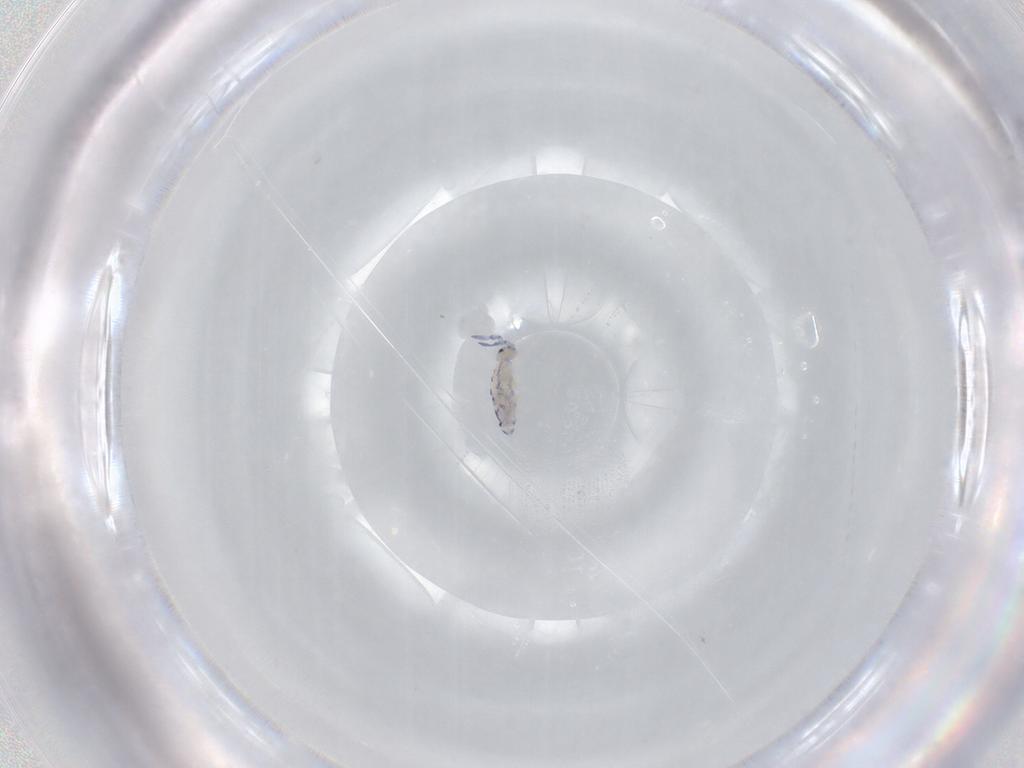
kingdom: Animalia
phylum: Arthropoda
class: Collembola
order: Entomobryomorpha
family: Entomobryidae
